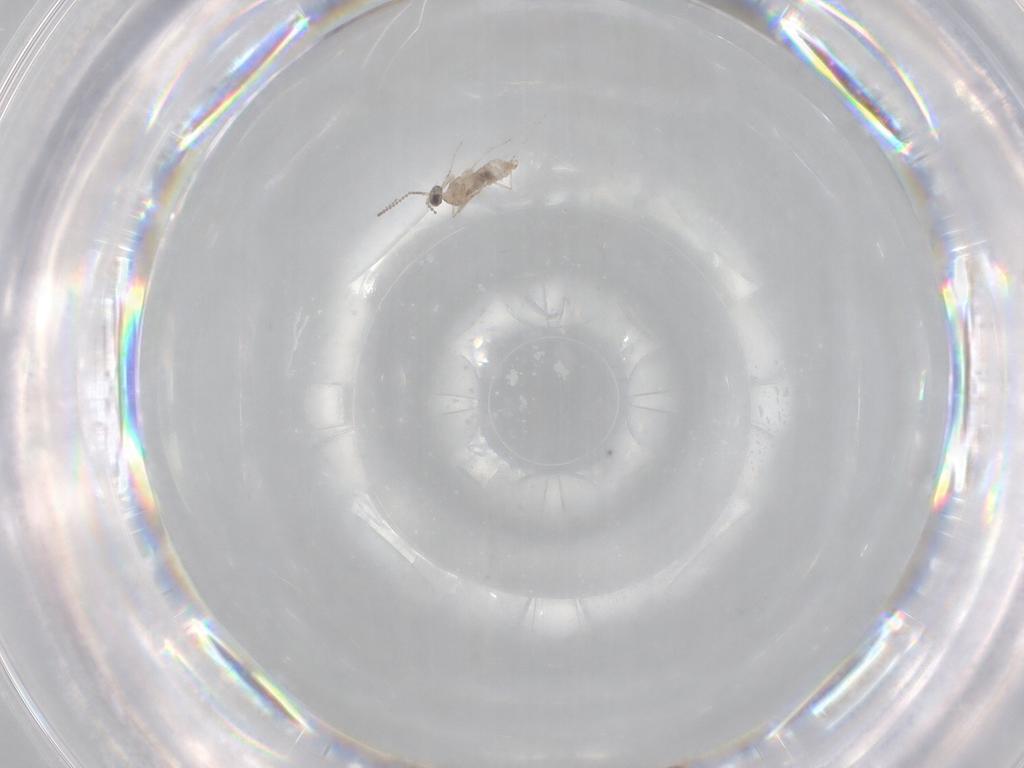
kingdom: Animalia
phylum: Arthropoda
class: Insecta
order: Diptera
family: Cecidomyiidae
